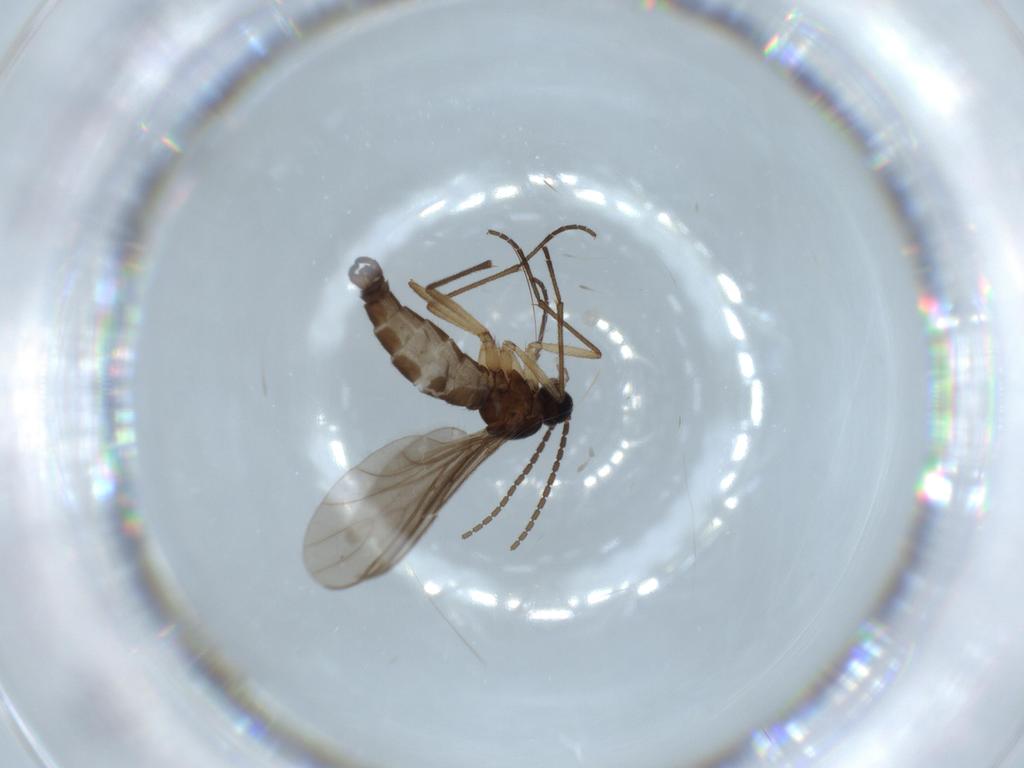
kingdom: Animalia
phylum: Arthropoda
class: Insecta
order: Diptera
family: Sciaridae
